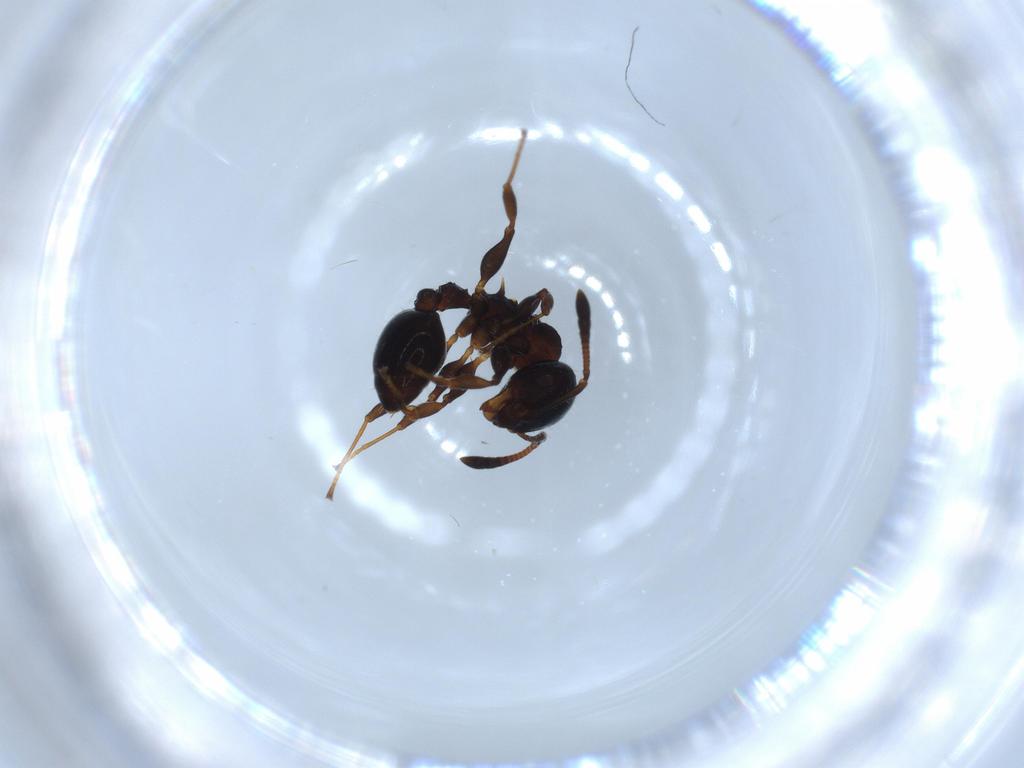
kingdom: Animalia
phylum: Arthropoda
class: Insecta
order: Hymenoptera
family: Formicidae
